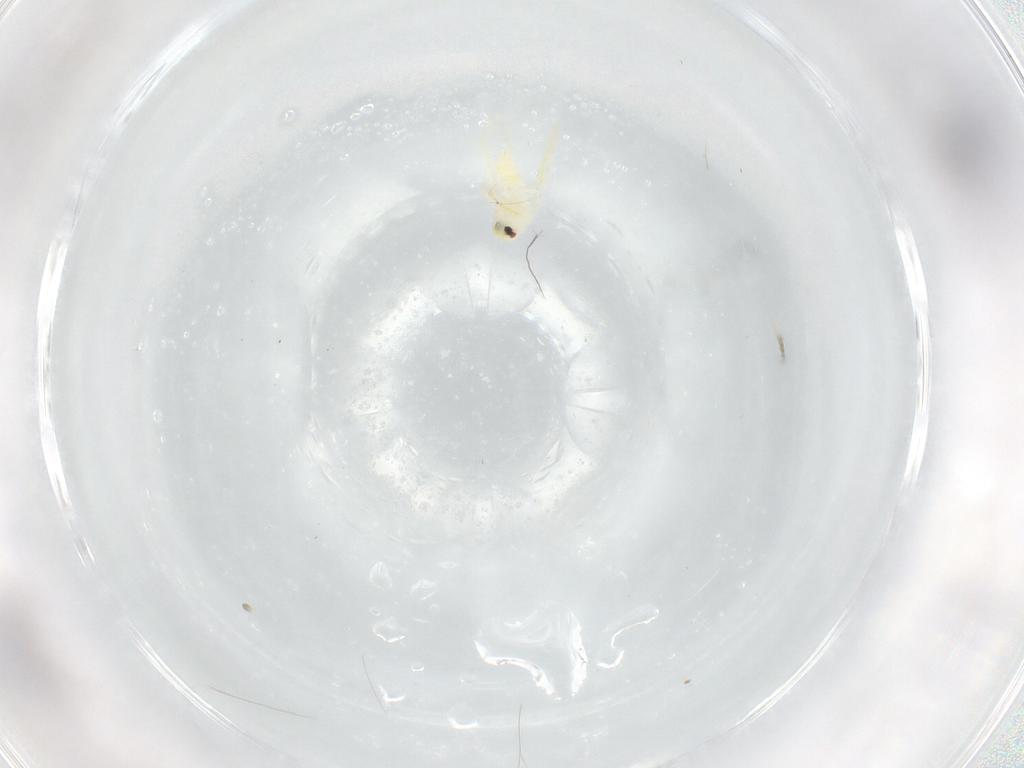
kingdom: Animalia
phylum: Arthropoda
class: Insecta
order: Hemiptera
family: Aleyrodidae
